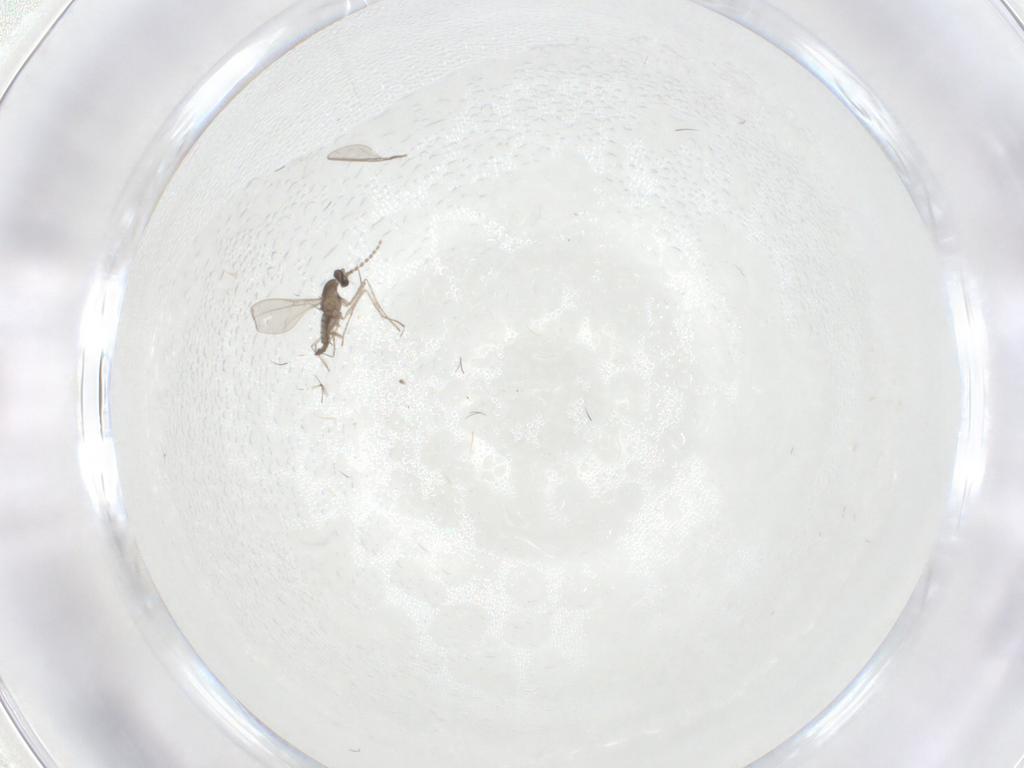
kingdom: Animalia
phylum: Arthropoda
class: Insecta
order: Diptera
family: Chironomidae
